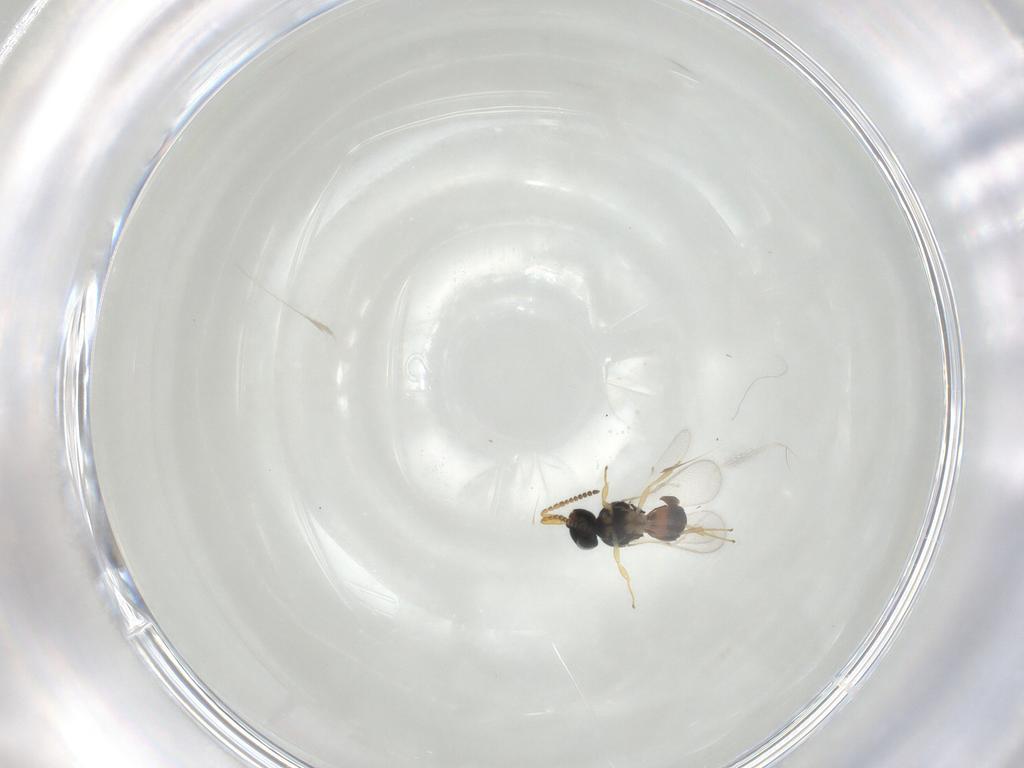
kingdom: Animalia
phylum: Arthropoda
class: Insecta
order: Hymenoptera
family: Scelionidae
